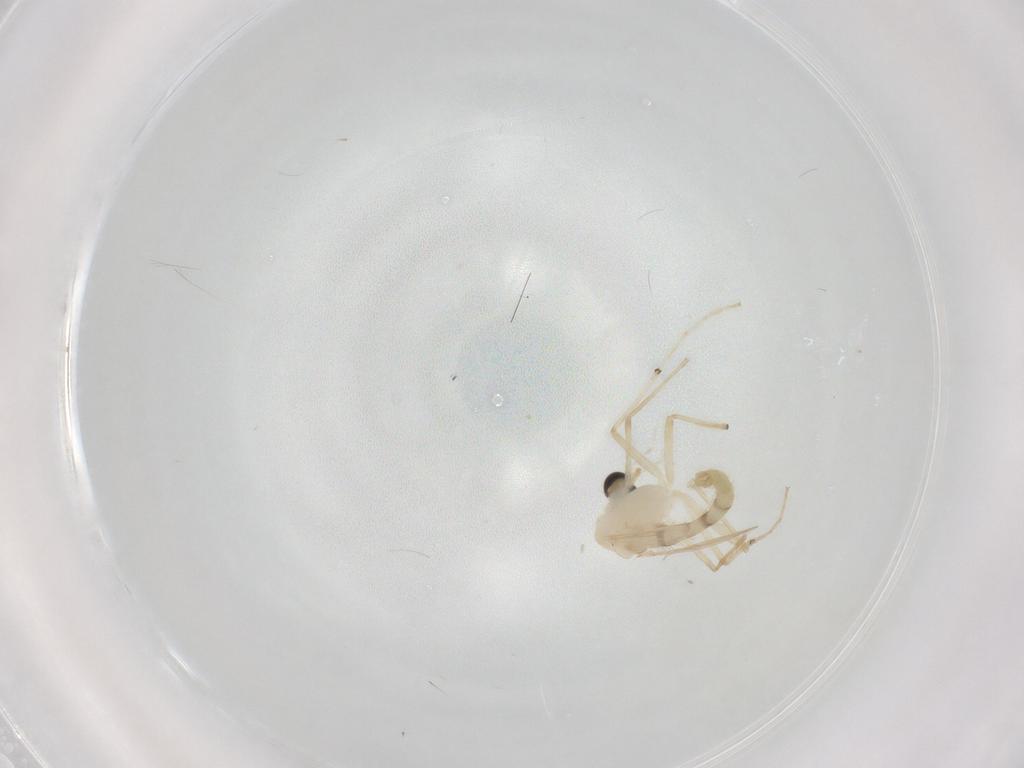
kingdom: Animalia
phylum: Arthropoda
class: Insecta
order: Diptera
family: Chironomidae
